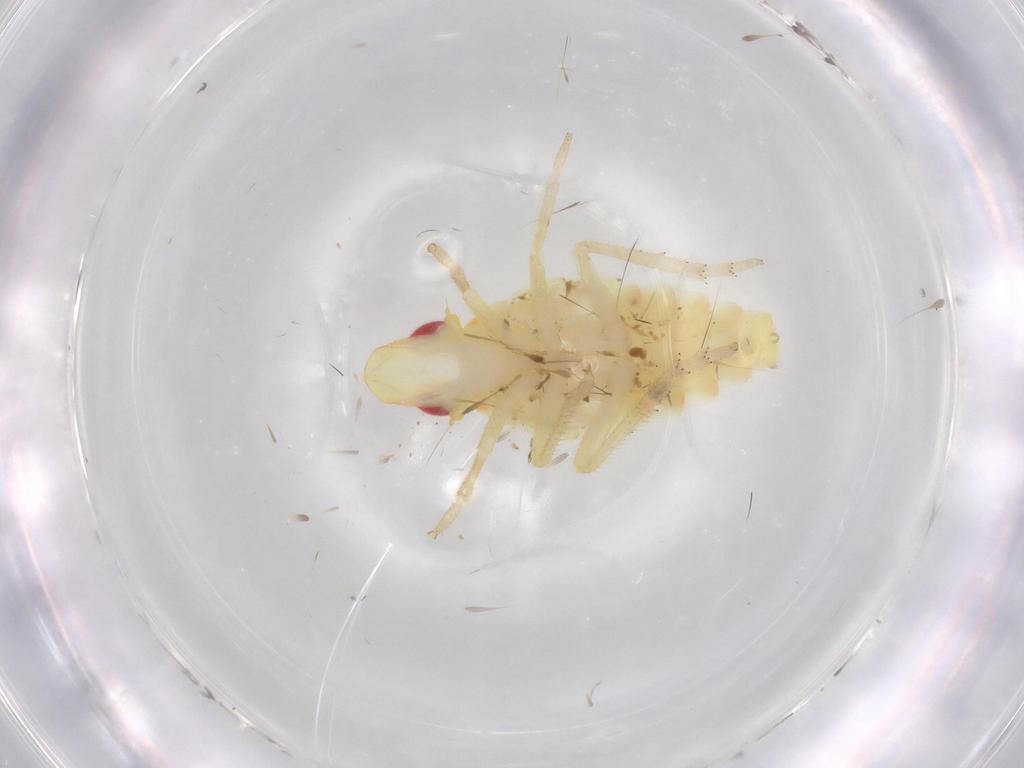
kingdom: Animalia
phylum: Arthropoda
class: Insecta
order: Hemiptera
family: Tropiduchidae
